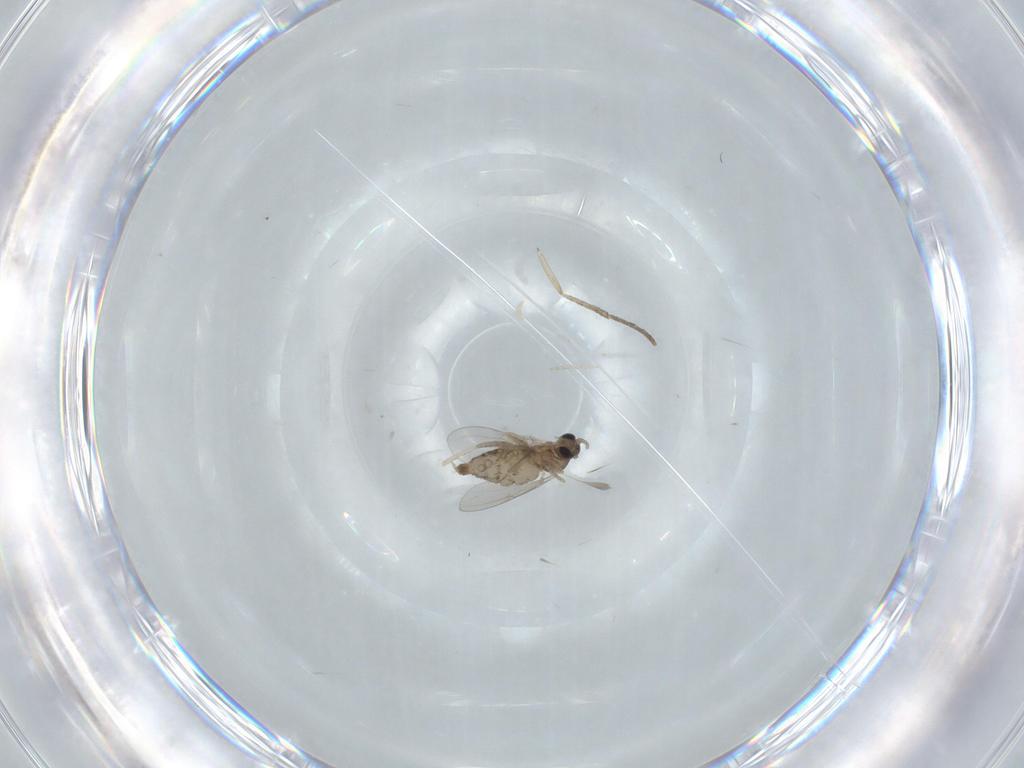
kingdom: Animalia
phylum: Arthropoda
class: Insecta
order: Diptera
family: Cecidomyiidae
